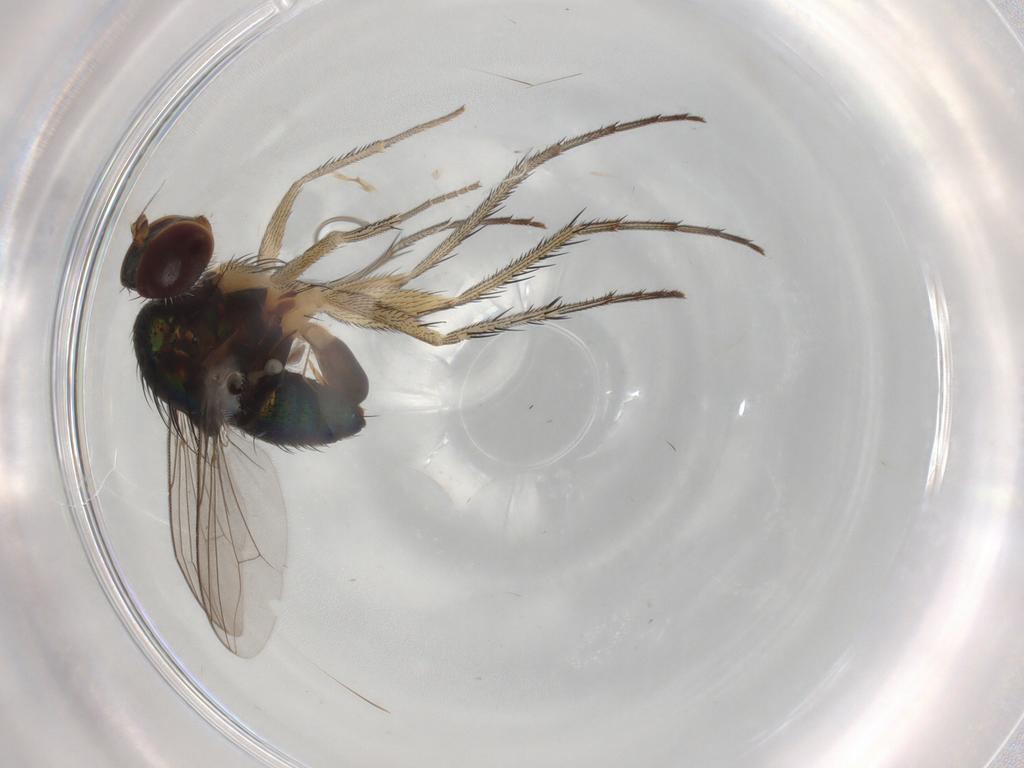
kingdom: Animalia
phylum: Arthropoda
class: Insecta
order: Diptera
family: Dolichopodidae
